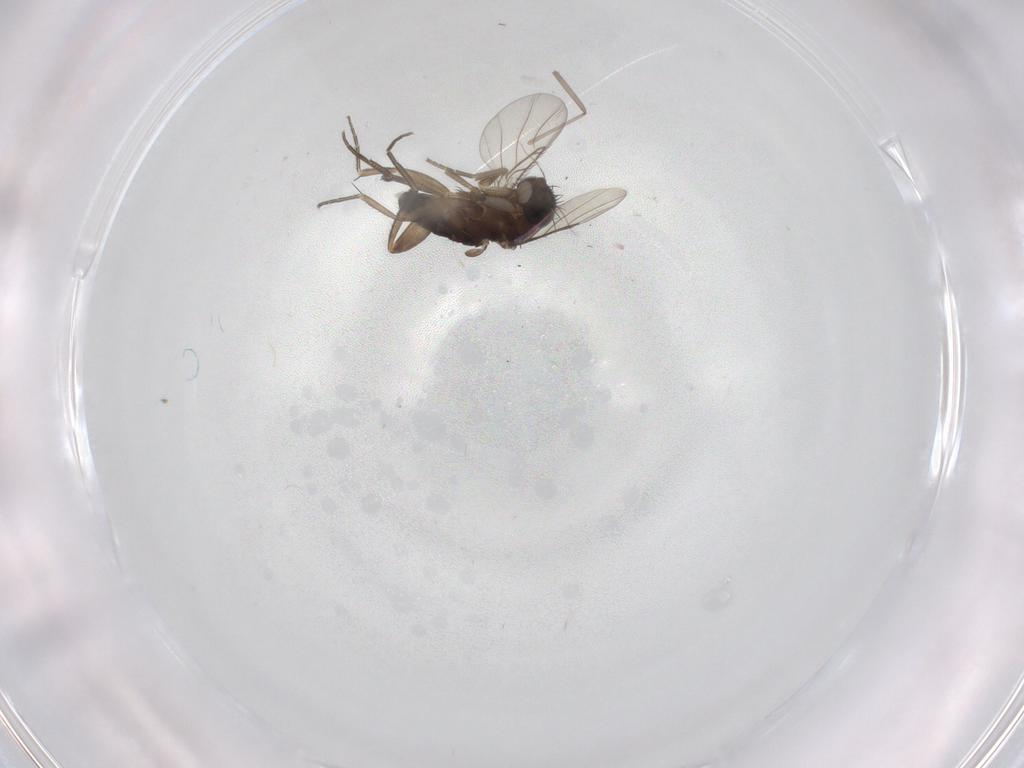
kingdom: Animalia
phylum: Arthropoda
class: Insecta
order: Diptera
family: Phoridae
